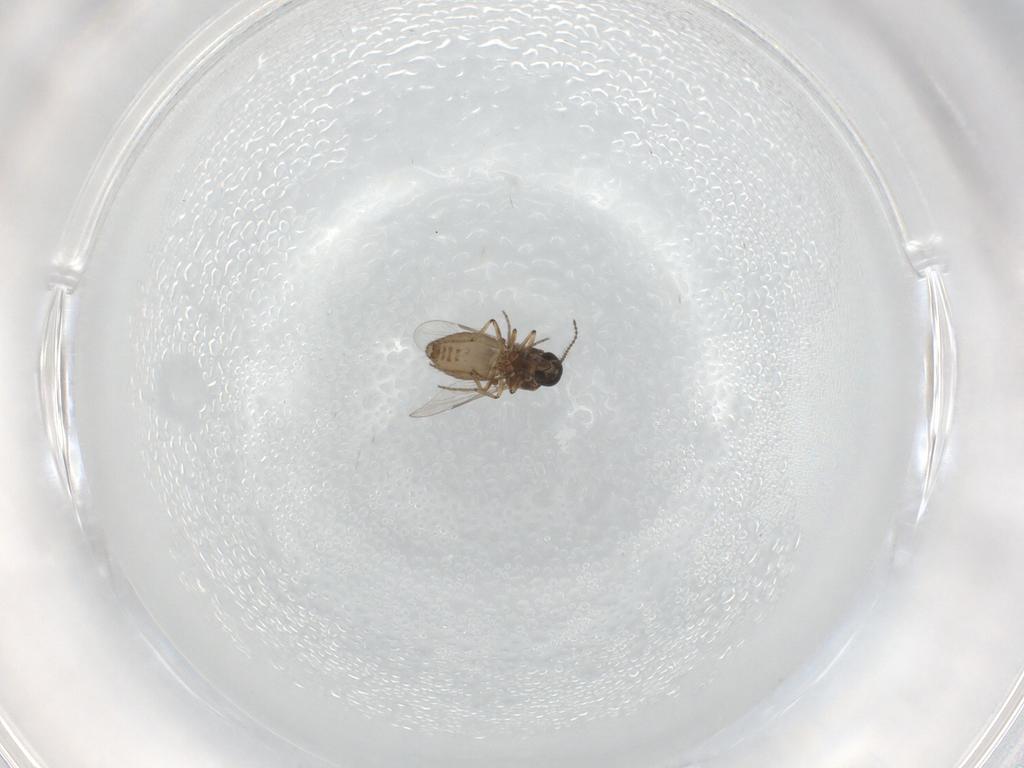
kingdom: Animalia
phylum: Arthropoda
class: Insecta
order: Diptera
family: Ceratopogonidae
